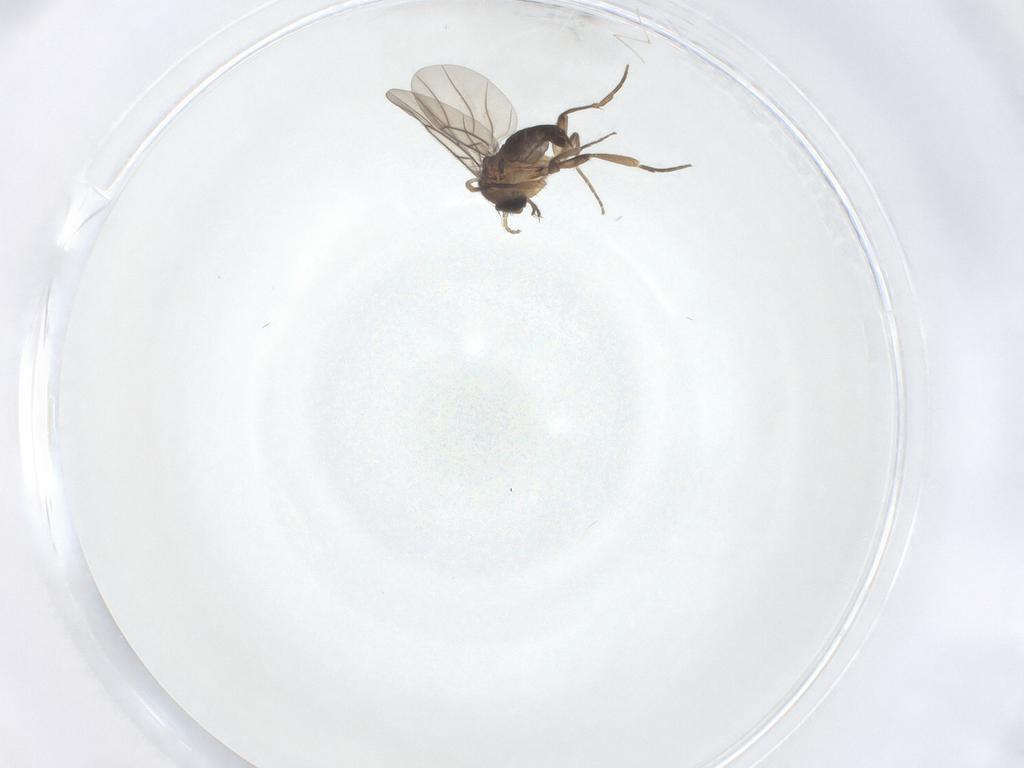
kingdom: Animalia
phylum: Arthropoda
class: Insecta
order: Diptera
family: Phoridae
